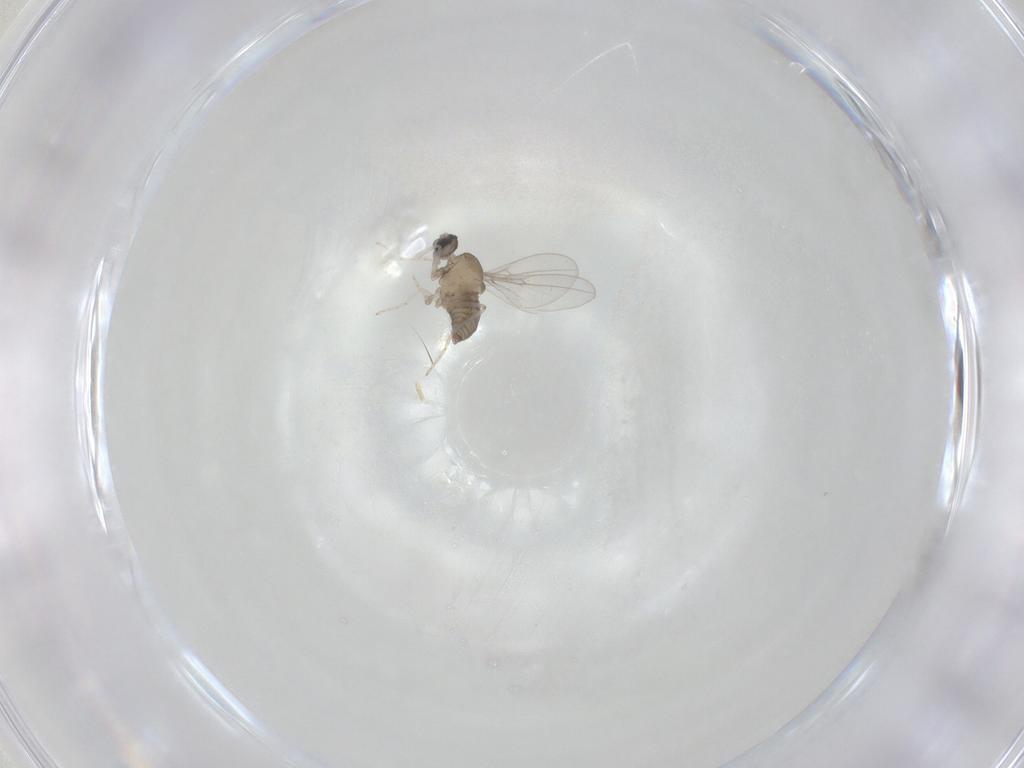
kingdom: Animalia
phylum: Arthropoda
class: Insecta
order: Diptera
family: Cecidomyiidae
